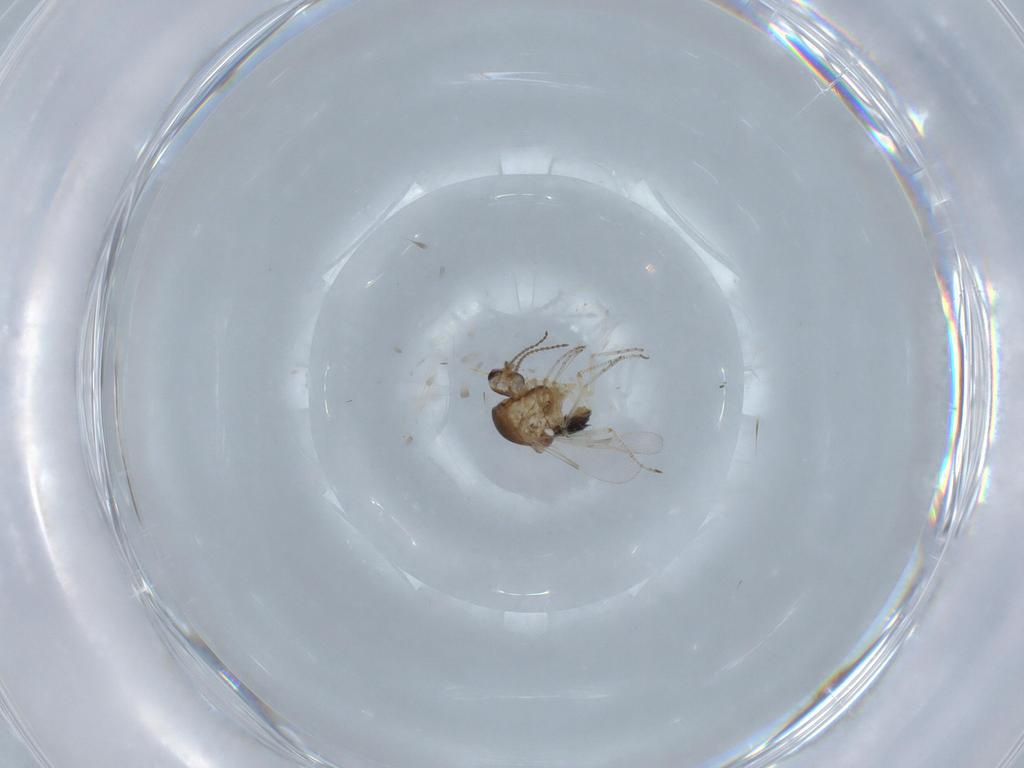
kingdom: Animalia
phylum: Arthropoda
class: Insecta
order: Diptera
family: Ceratopogonidae
